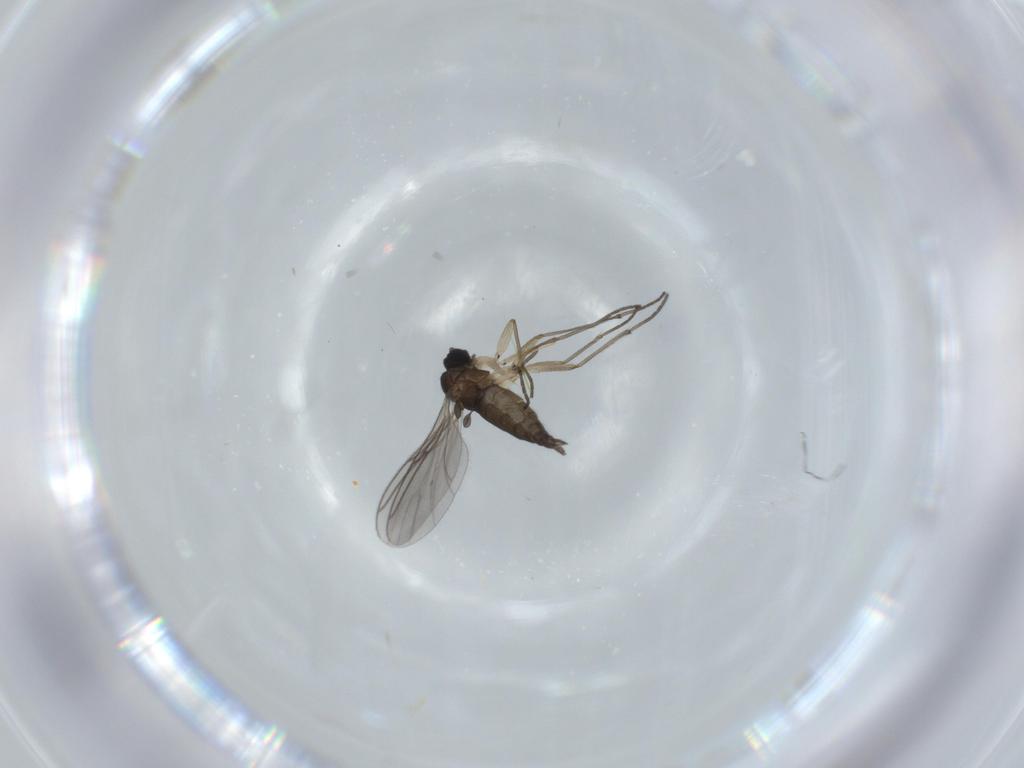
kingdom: Animalia
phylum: Arthropoda
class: Insecta
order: Diptera
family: Sciaridae
